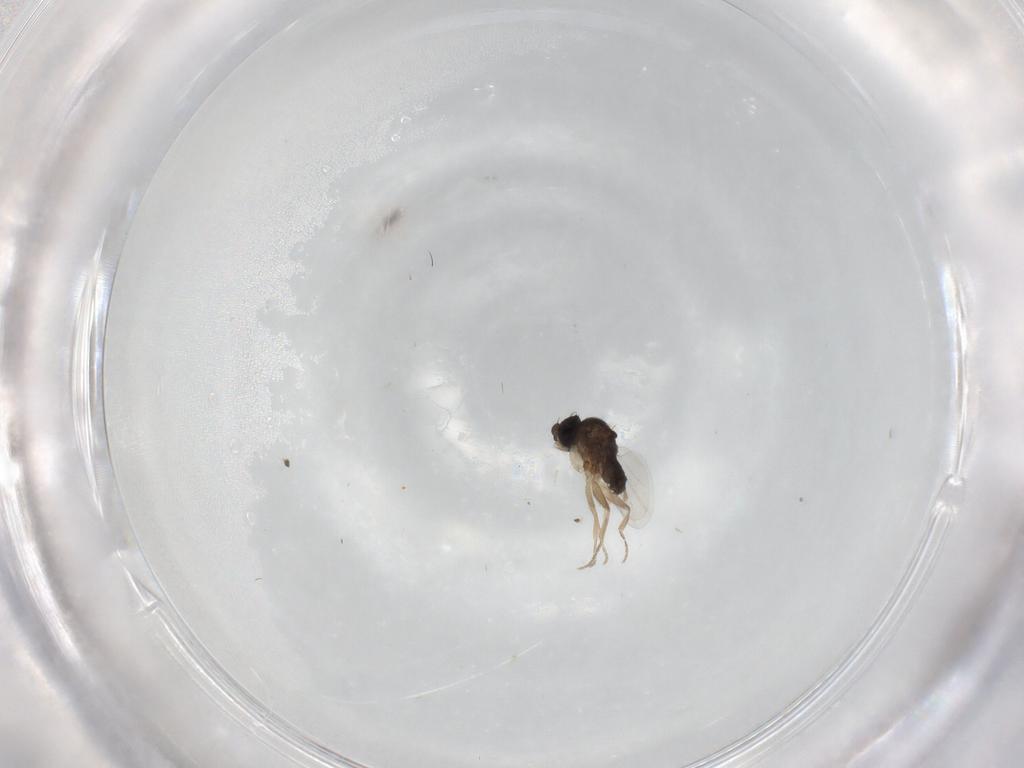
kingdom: Animalia
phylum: Arthropoda
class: Insecta
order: Diptera
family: Phoridae
